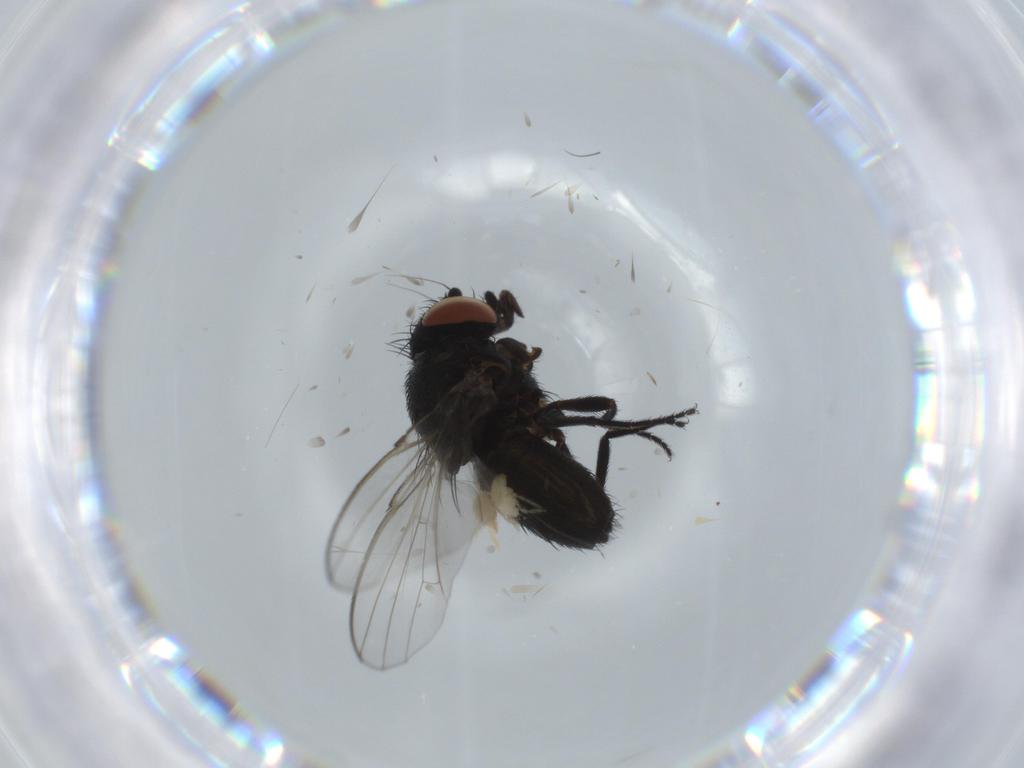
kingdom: Animalia
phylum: Arthropoda
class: Insecta
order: Diptera
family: Milichiidae
